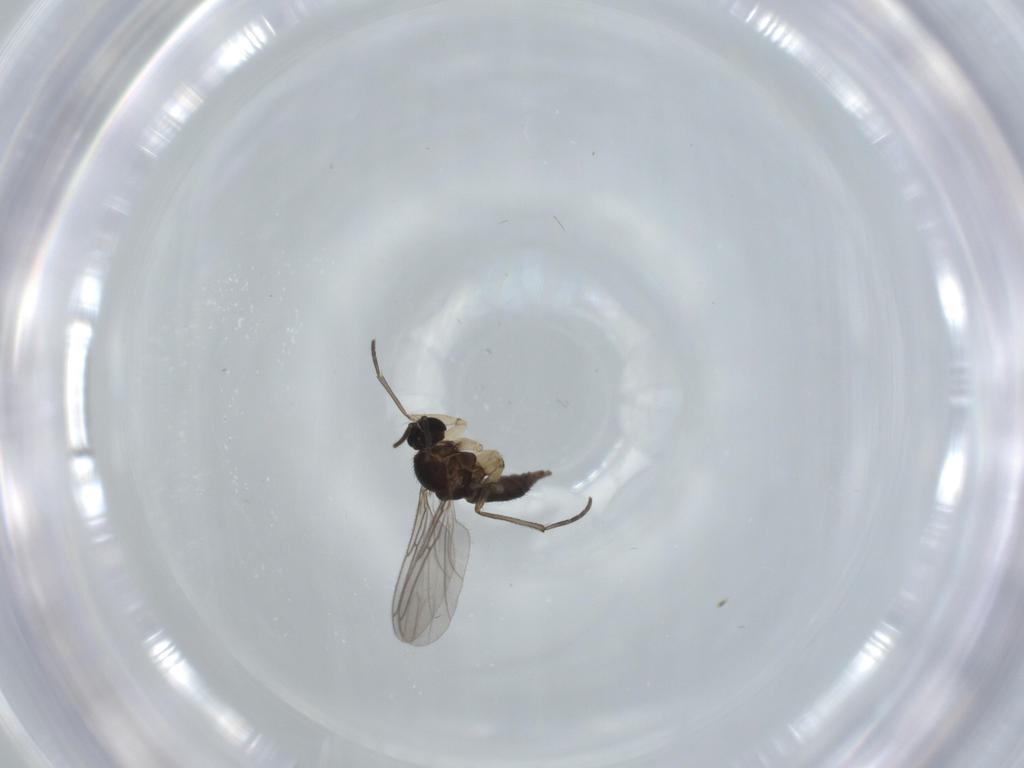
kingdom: Animalia
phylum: Arthropoda
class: Insecta
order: Diptera
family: Sciaridae
